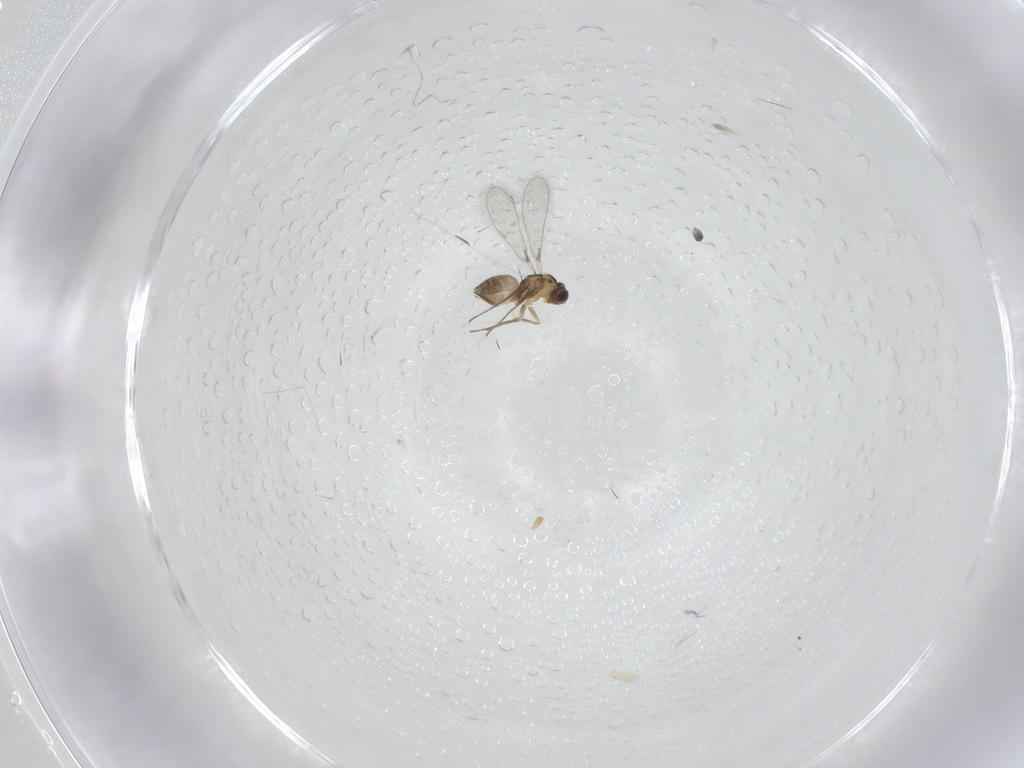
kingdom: Animalia
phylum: Arthropoda
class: Insecta
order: Hymenoptera
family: Mymaridae
